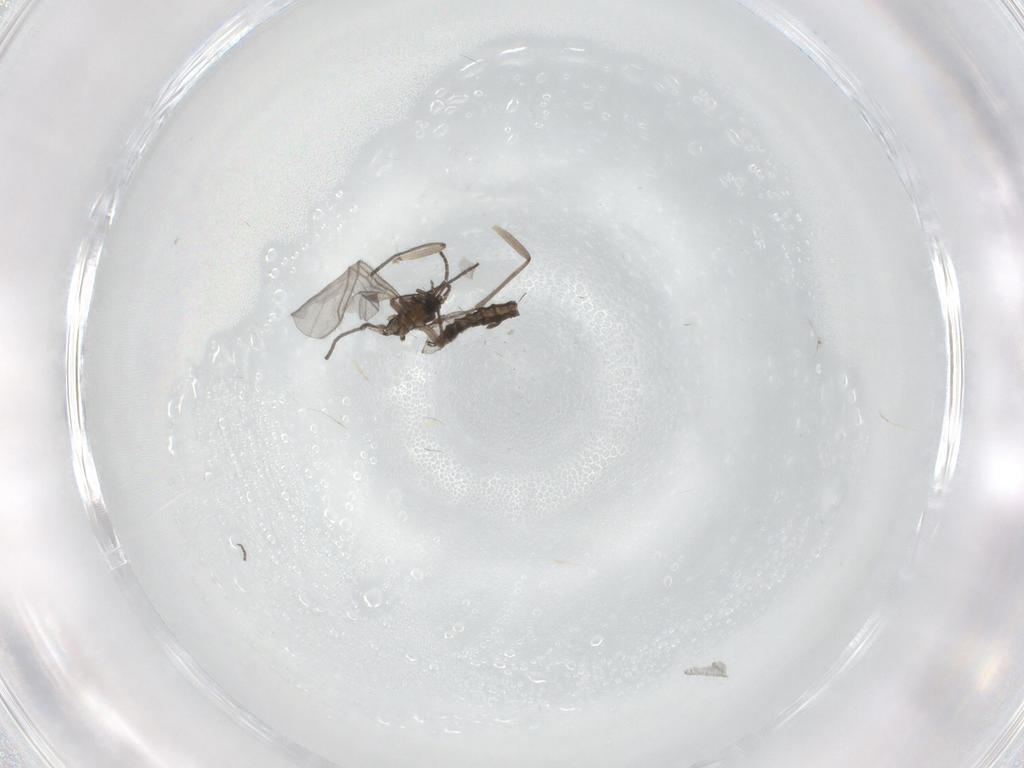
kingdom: Animalia
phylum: Arthropoda
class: Insecta
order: Diptera
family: Sciaridae
